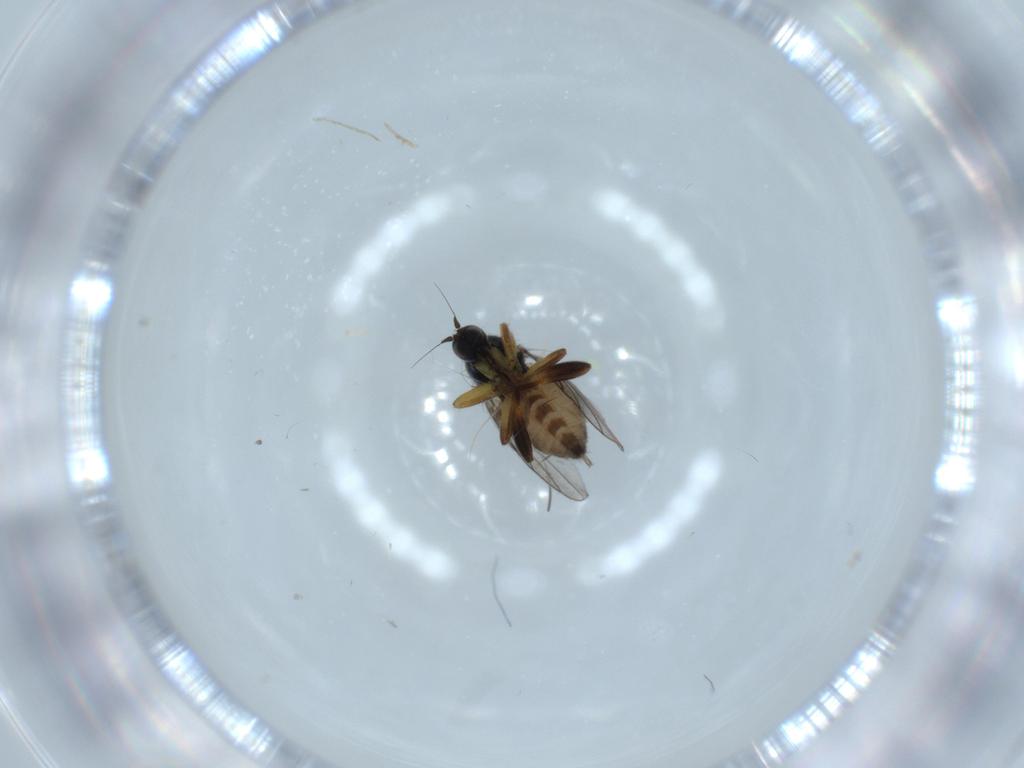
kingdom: Animalia
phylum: Arthropoda
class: Insecta
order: Diptera
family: Hybotidae
